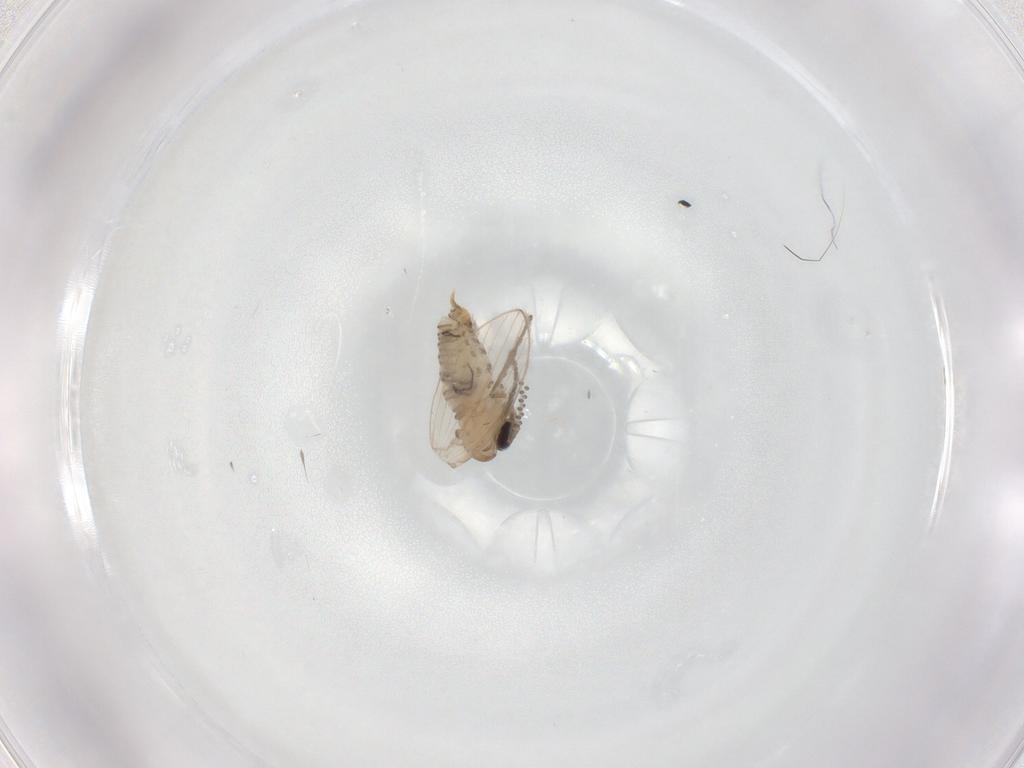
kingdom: Animalia
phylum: Arthropoda
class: Insecta
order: Diptera
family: Psychodidae
